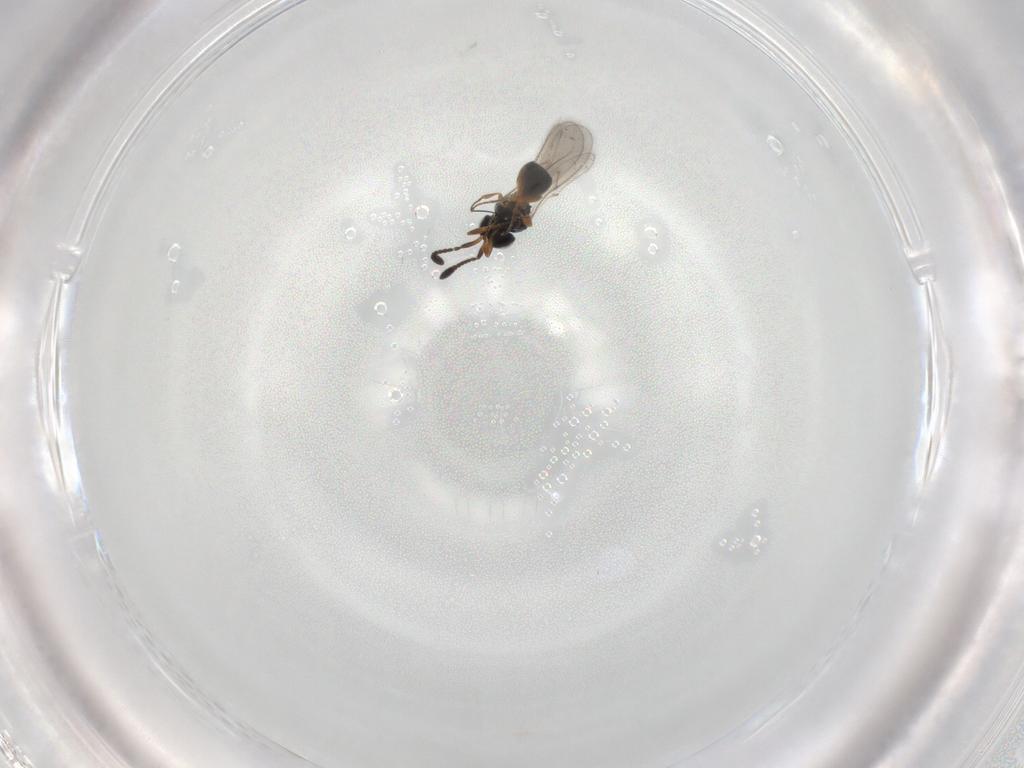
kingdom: Animalia
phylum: Arthropoda
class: Insecta
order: Hymenoptera
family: Scelionidae
